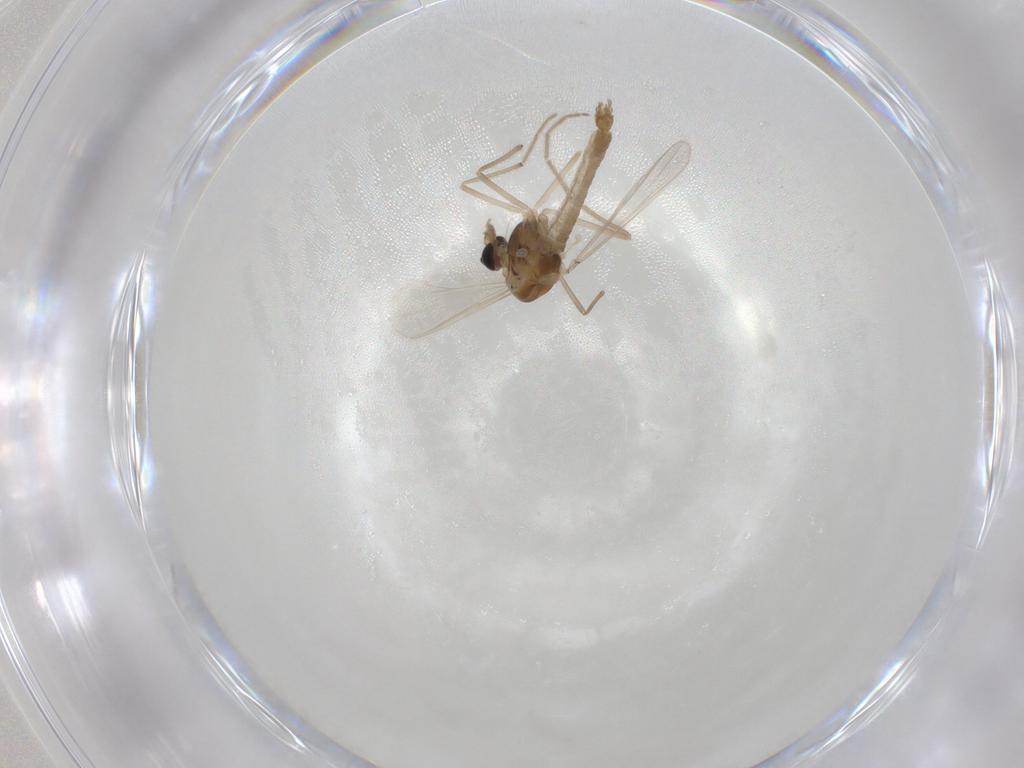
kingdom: Animalia
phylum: Arthropoda
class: Insecta
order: Diptera
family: Chironomidae
